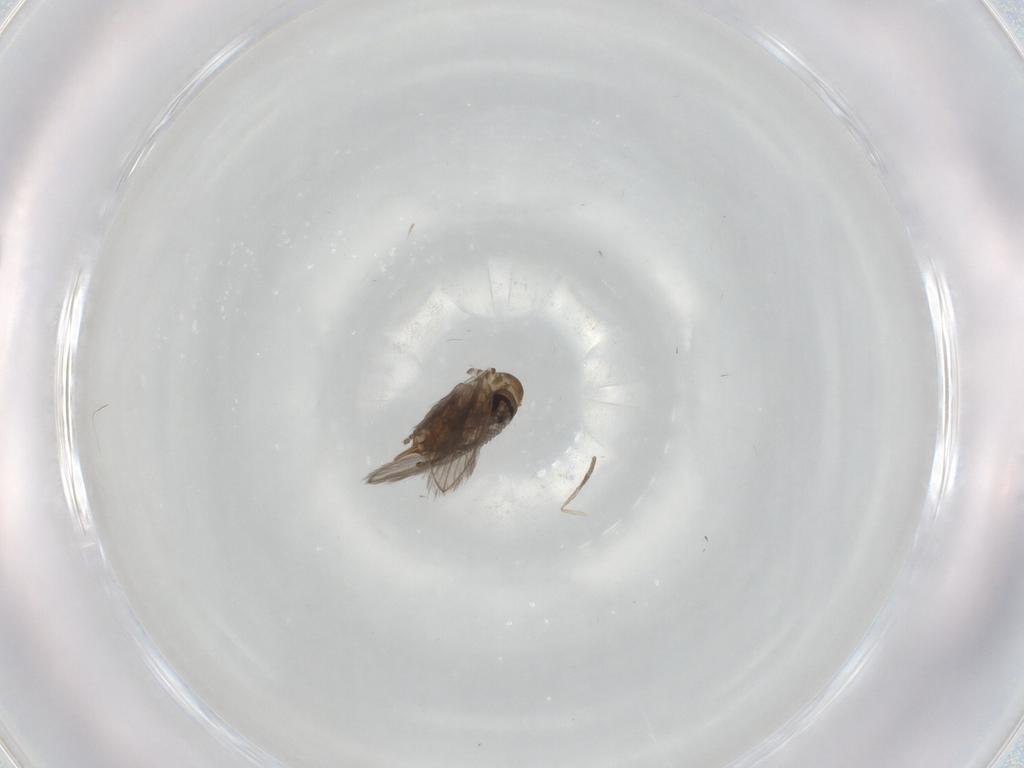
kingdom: Animalia
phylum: Arthropoda
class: Insecta
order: Diptera
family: Psychodidae
